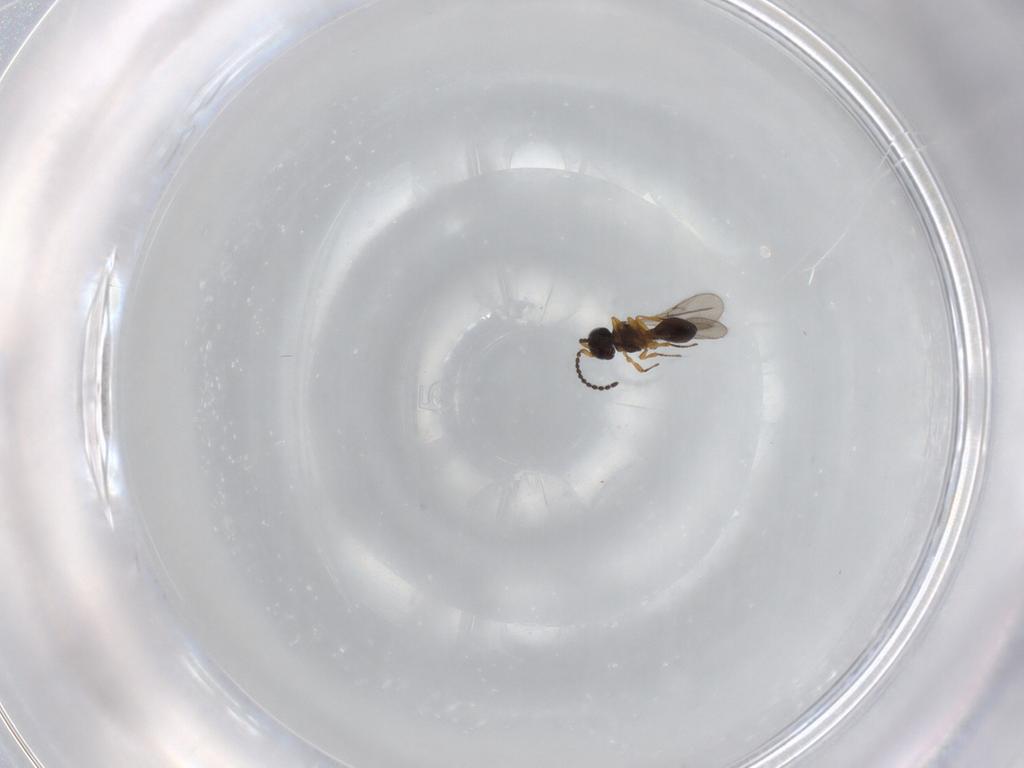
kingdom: Animalia
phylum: Arthropoda
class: Insecta
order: Hymenoptera
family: Scelionidae
